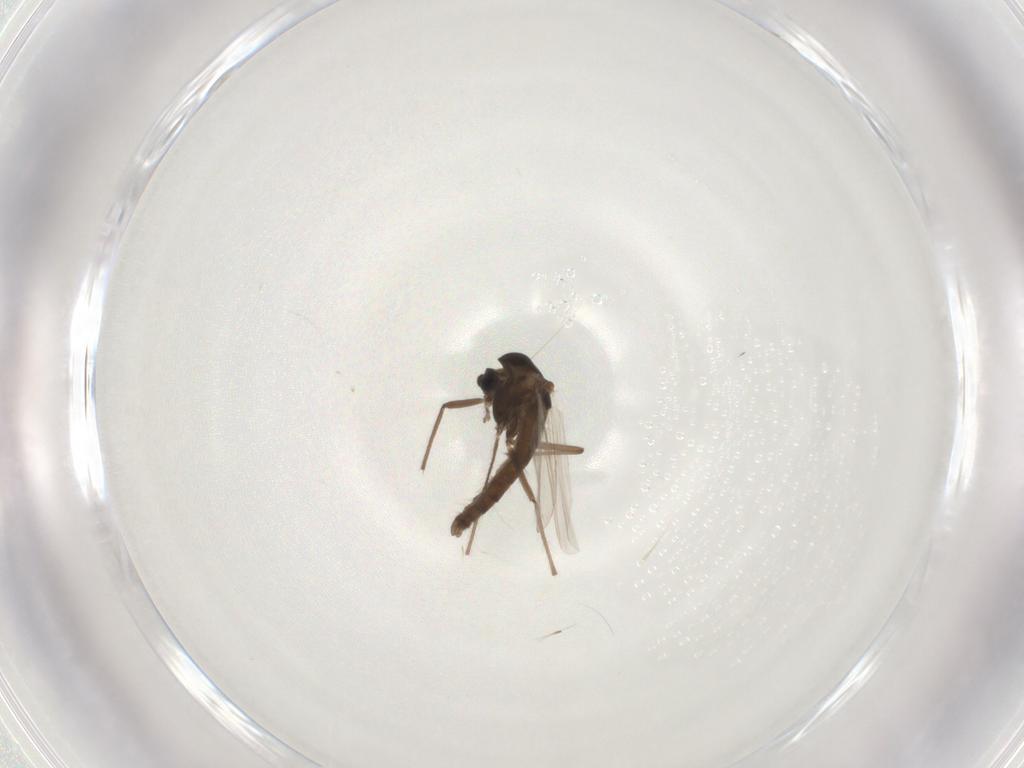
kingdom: Animalia
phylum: Arthropoda
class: Insecta
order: Diptera
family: Chironomidae
